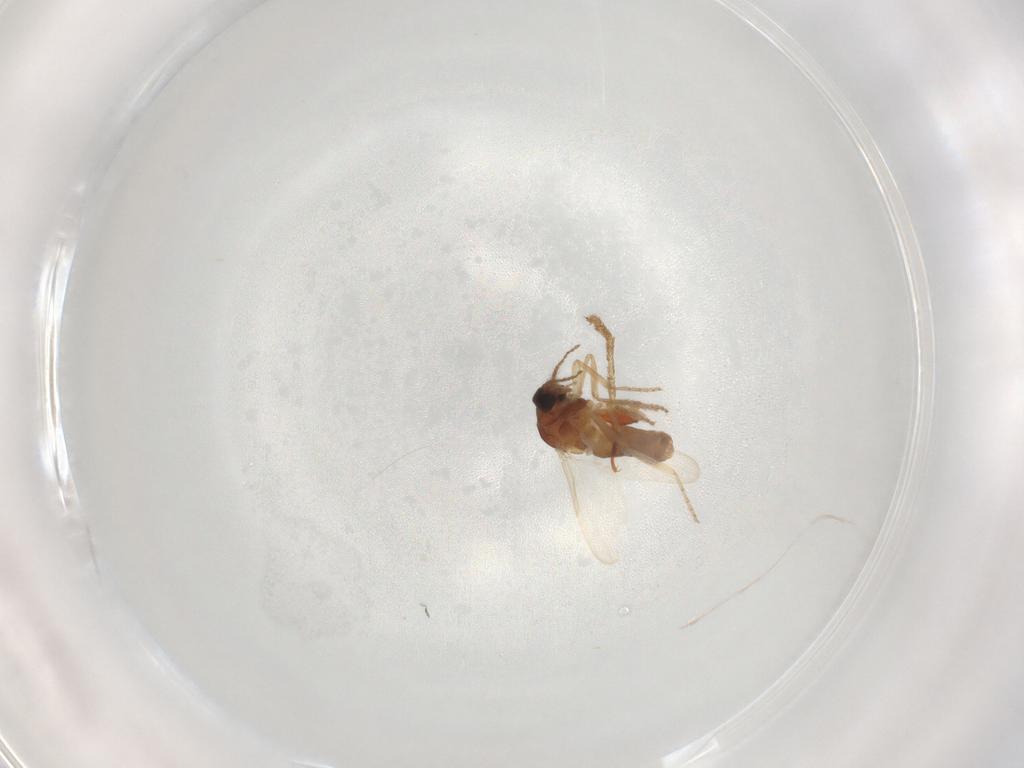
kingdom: Animalia
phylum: Arthropoda
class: Insecta
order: Diptera
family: Ceratopogonidae
